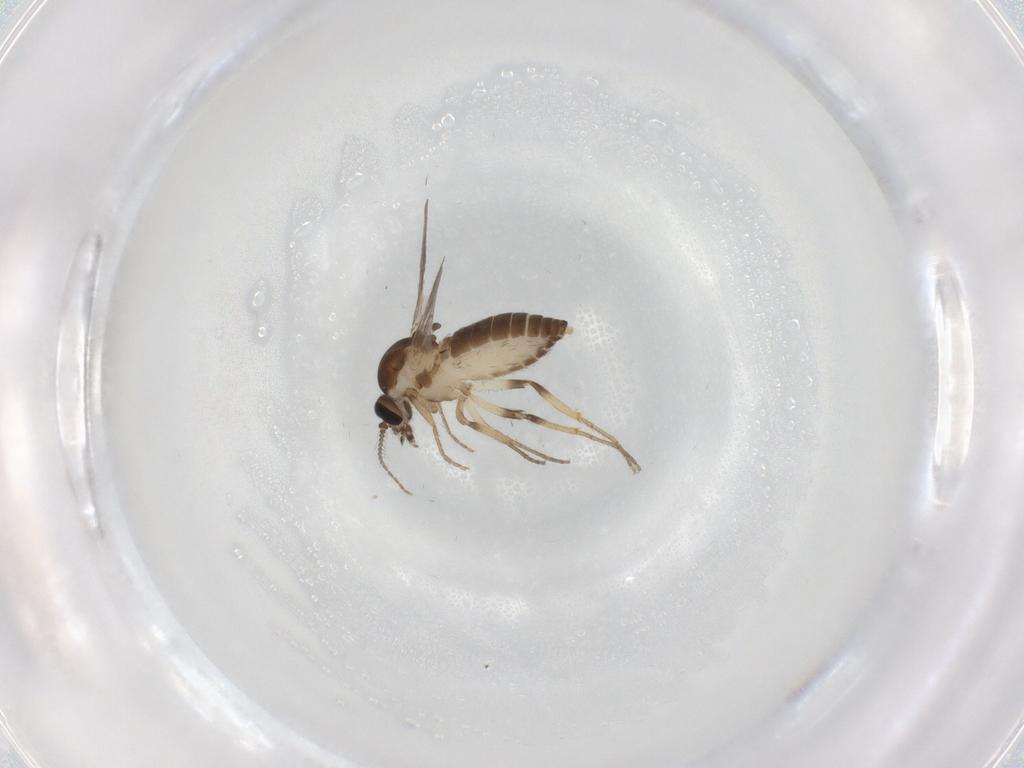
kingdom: Animalia
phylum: Arthropoda
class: Insecta
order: Diptera
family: Ceratopogonidae
